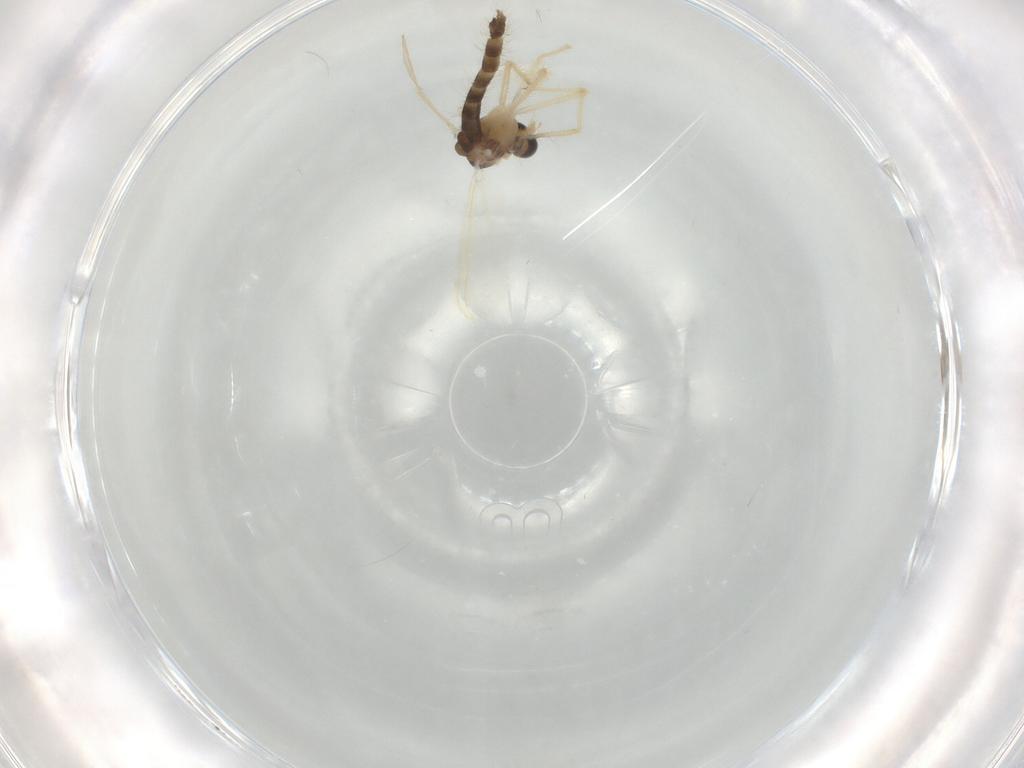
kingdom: Animalia
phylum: Arthropoda
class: Insecta
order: Diptera
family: Chironomidae
